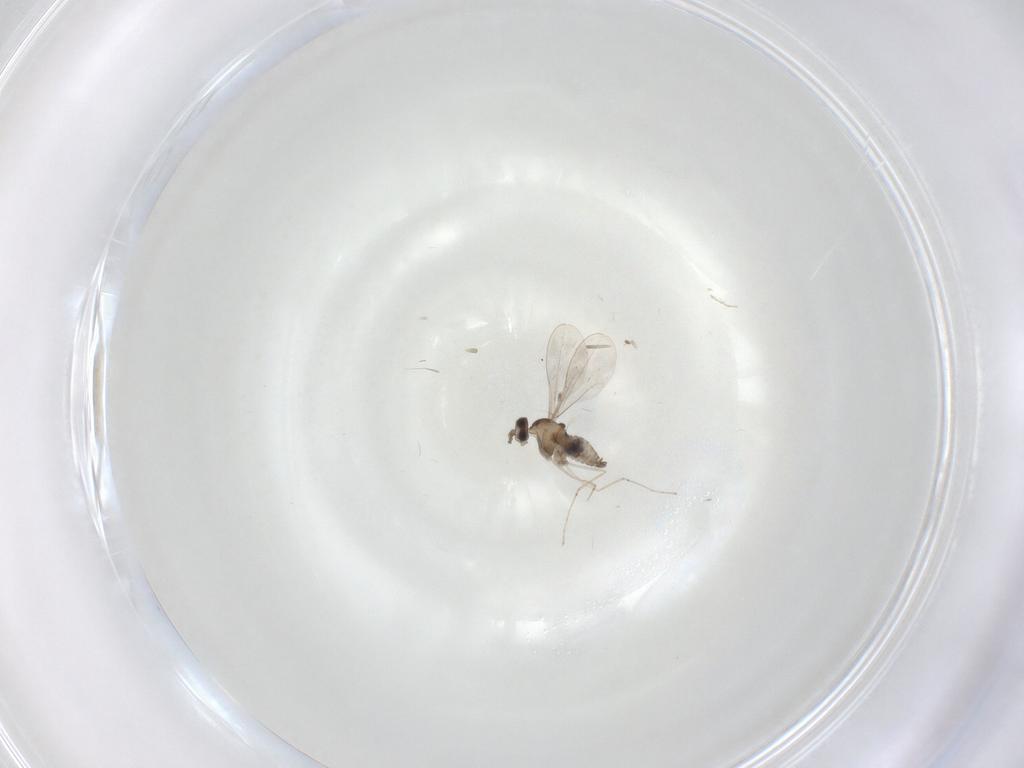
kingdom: Animalia
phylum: Arthropoda
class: Insecta
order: Diptera
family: Cecidomyiidae
